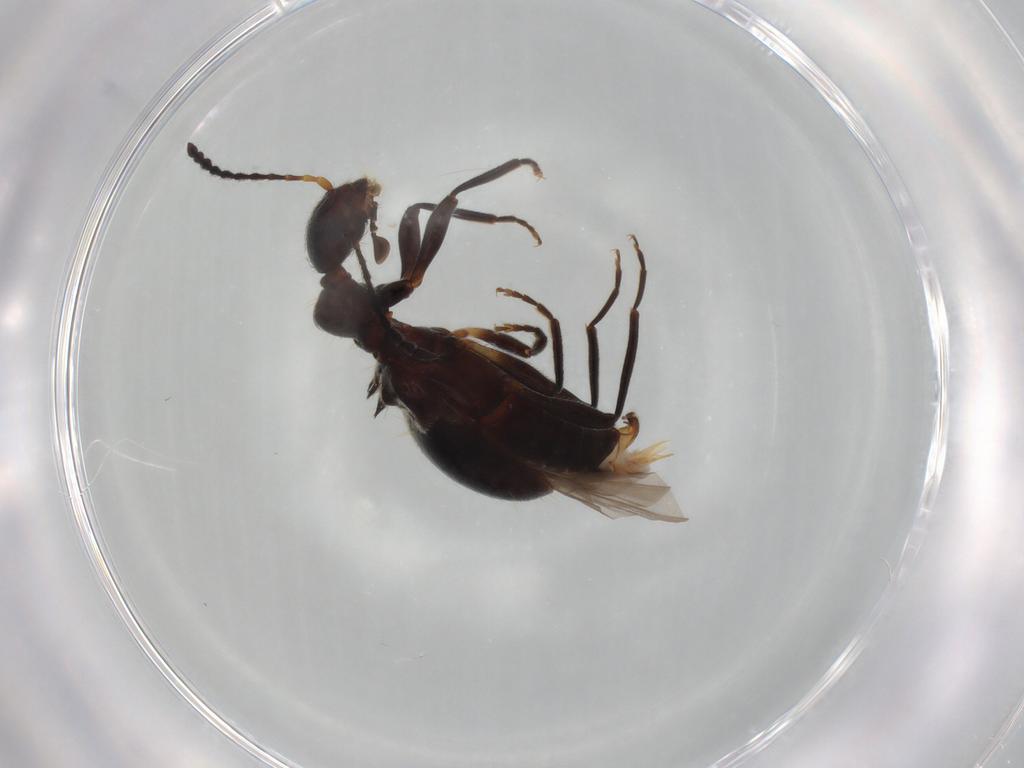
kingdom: Animalia
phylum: Arthropoda
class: Insecta
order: Coleoptera
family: Anthicidae
